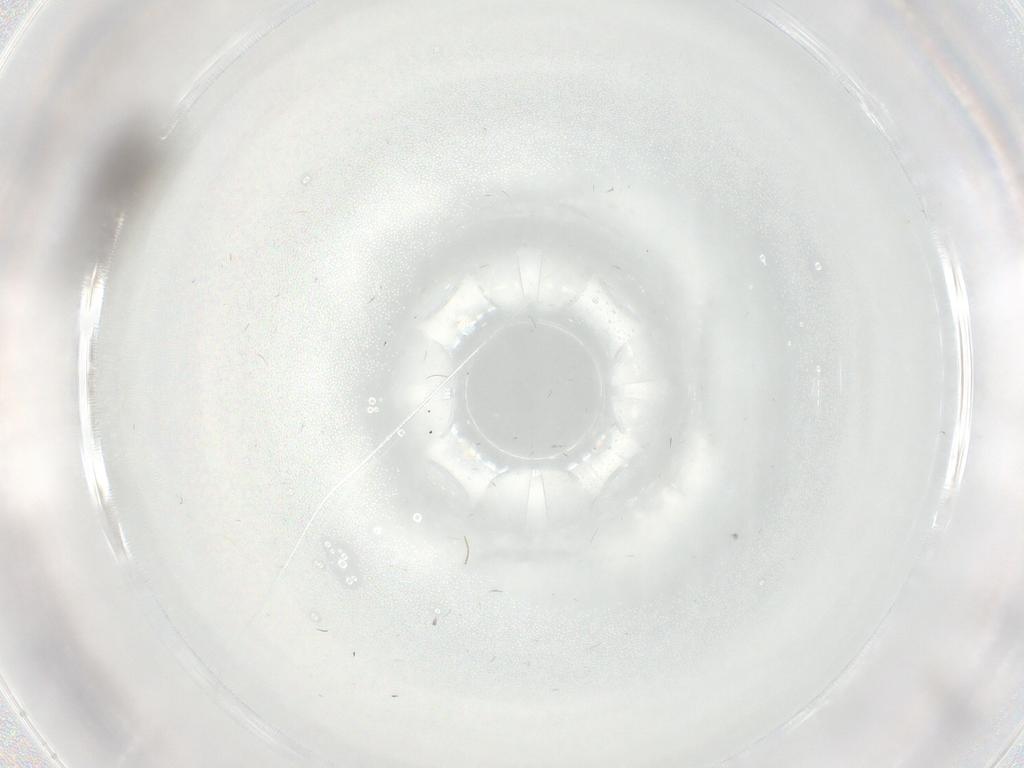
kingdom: Animalia
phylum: Arthropoda
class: Insecta
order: Diptera
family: Chironomidae
